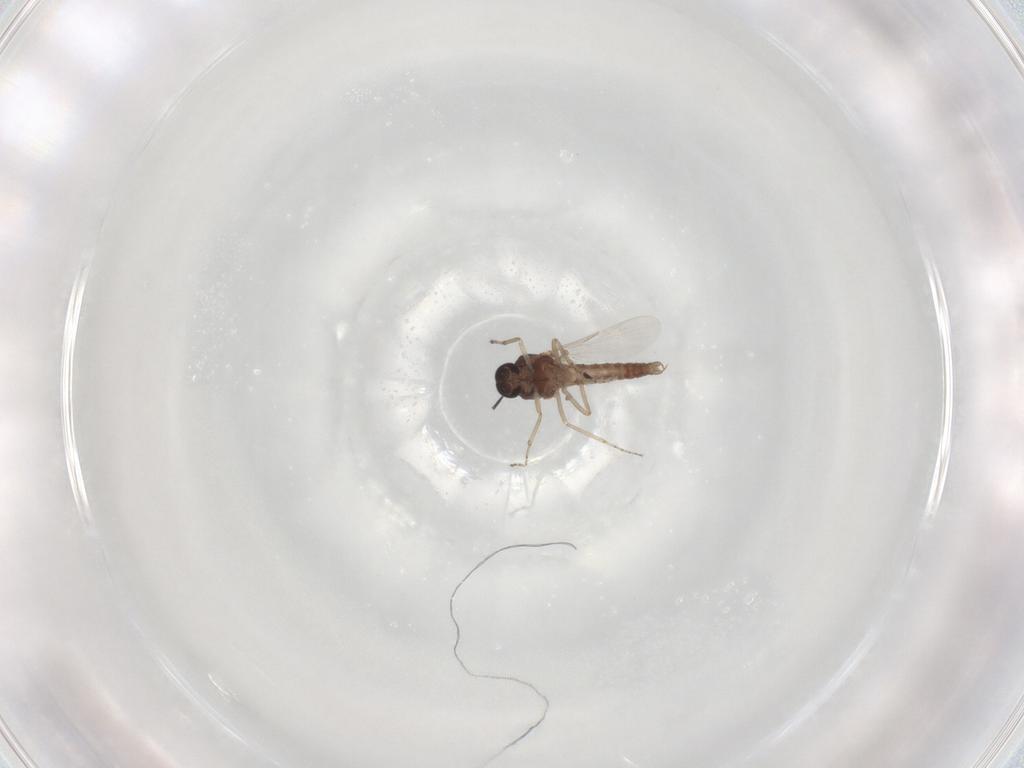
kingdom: Animalia
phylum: Arthropoda
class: Insecta
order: Diptera
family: Ceratopogonidae
